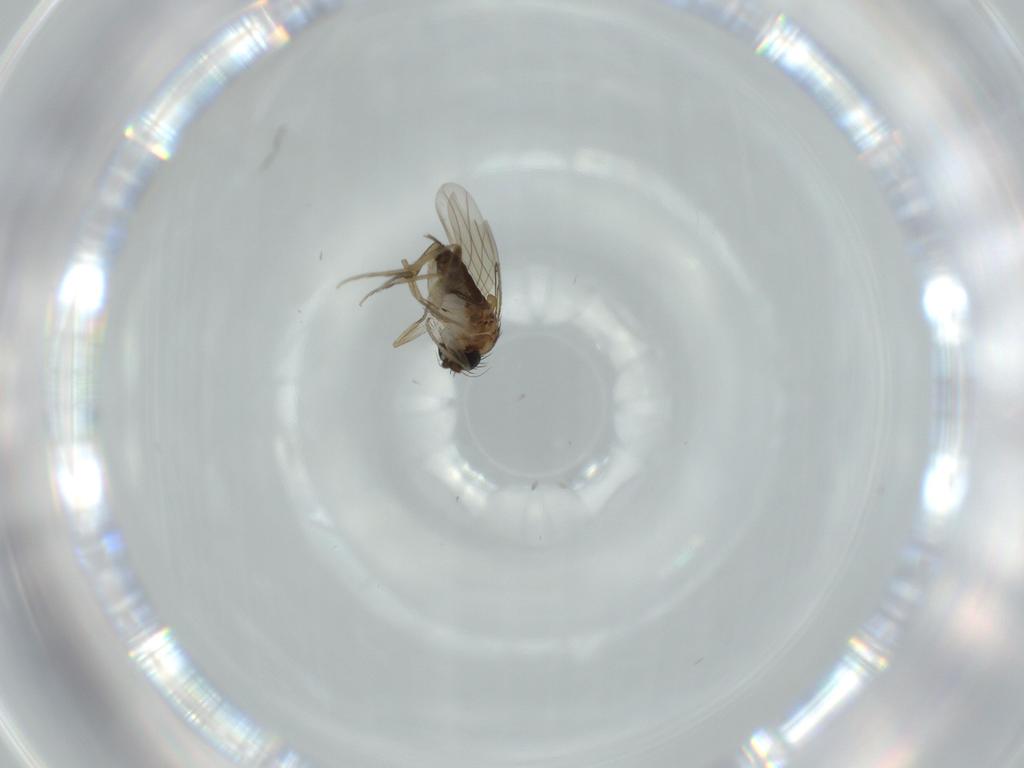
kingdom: Animalia
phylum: Arthropoda
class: Insecta
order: Diptera
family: Phoridae
